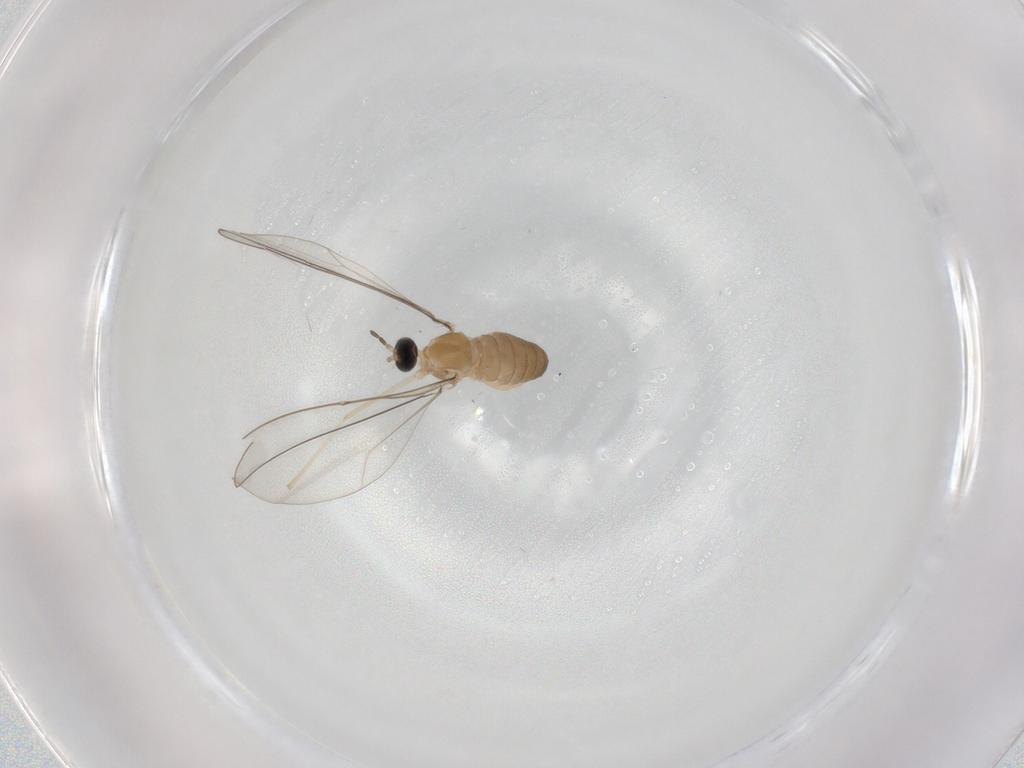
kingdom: Animalia
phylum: Arthropoda
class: Insecta
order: Diptera
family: Cecidomyiidae
